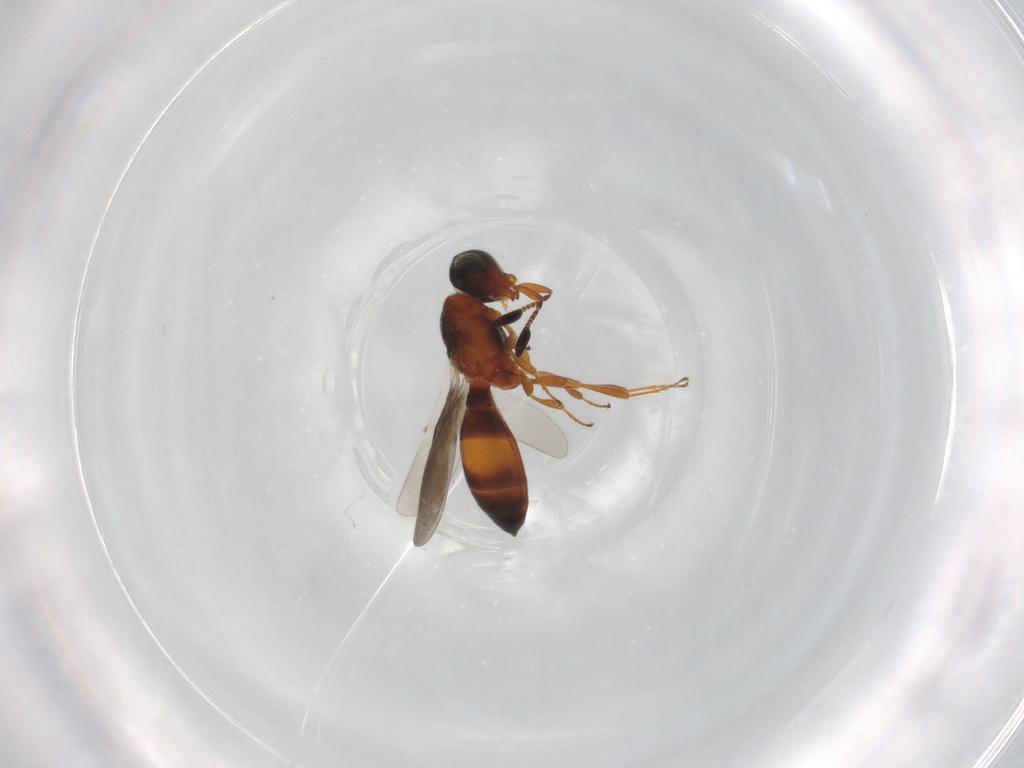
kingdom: Animalia
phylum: Arthropoda
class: Insecta
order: Hymenoptera
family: Scelionidae
